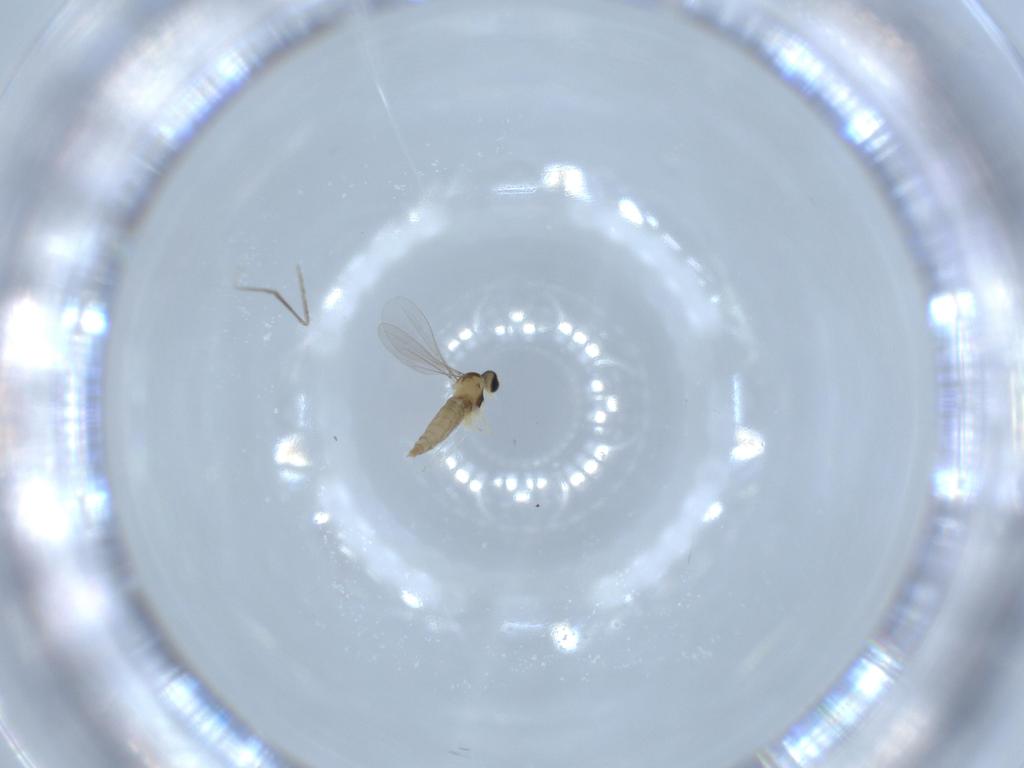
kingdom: Animalia
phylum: Arthropoda
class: Insecta
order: Diptera
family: Cecidomyiidae
